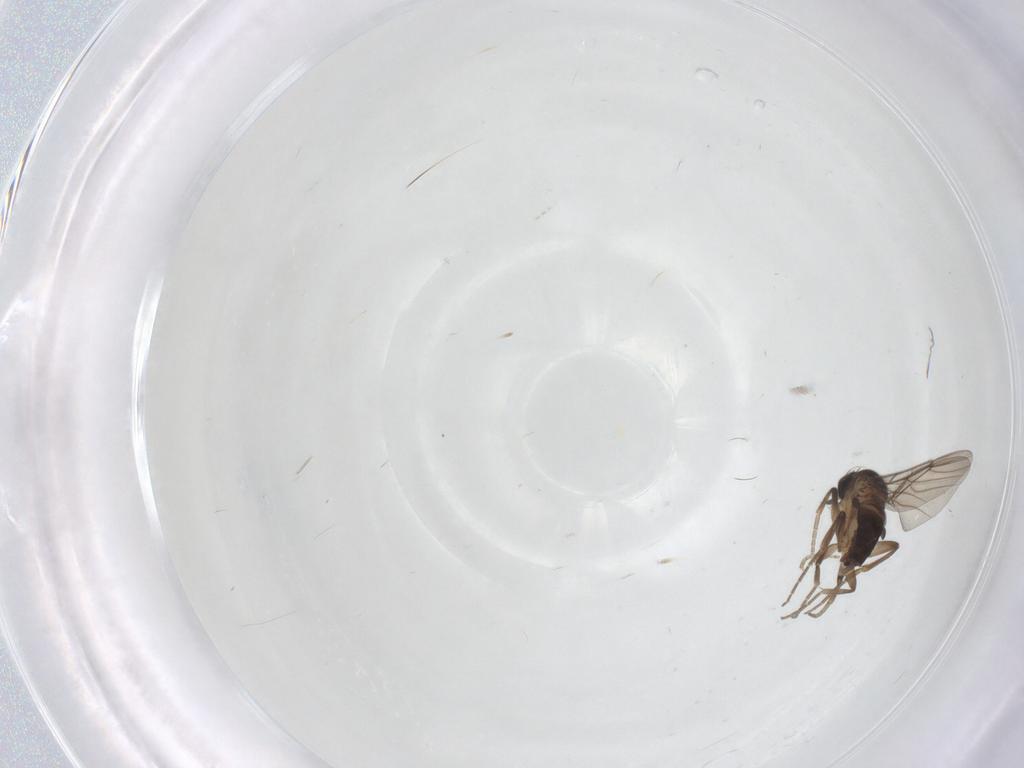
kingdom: Animalia
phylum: Arthropoda
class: Insecta
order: Diptera
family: Phoridae
